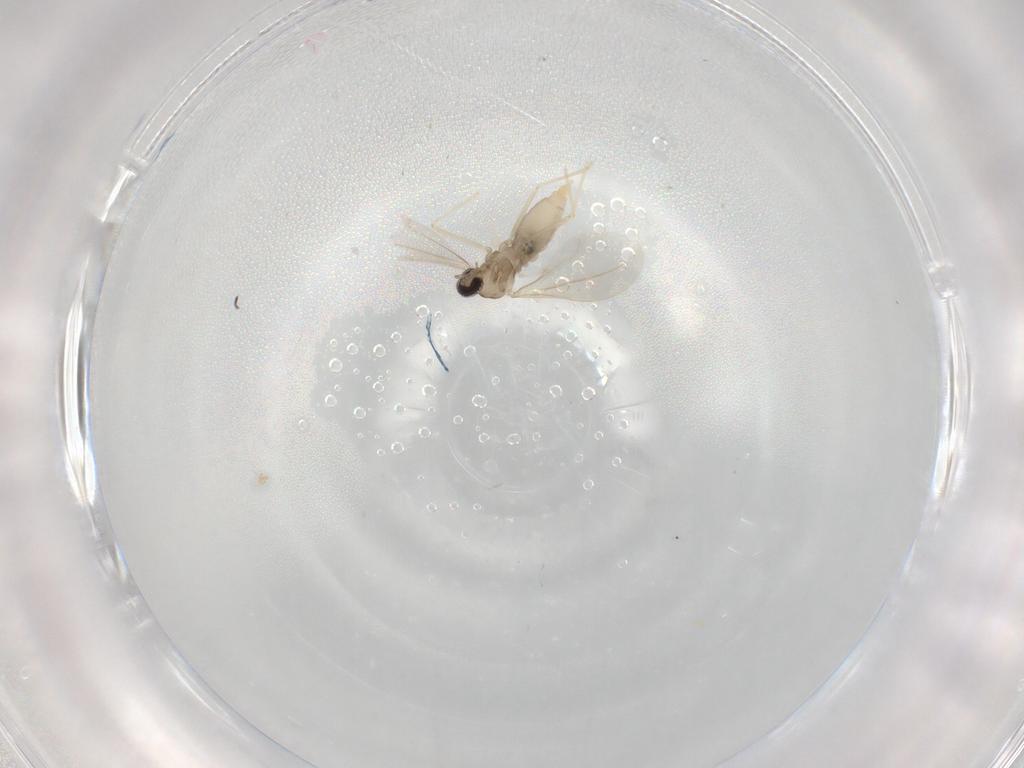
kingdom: Animalia
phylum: Arthropoda
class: Insecta
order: Diptera
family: Cecidomyiidae
